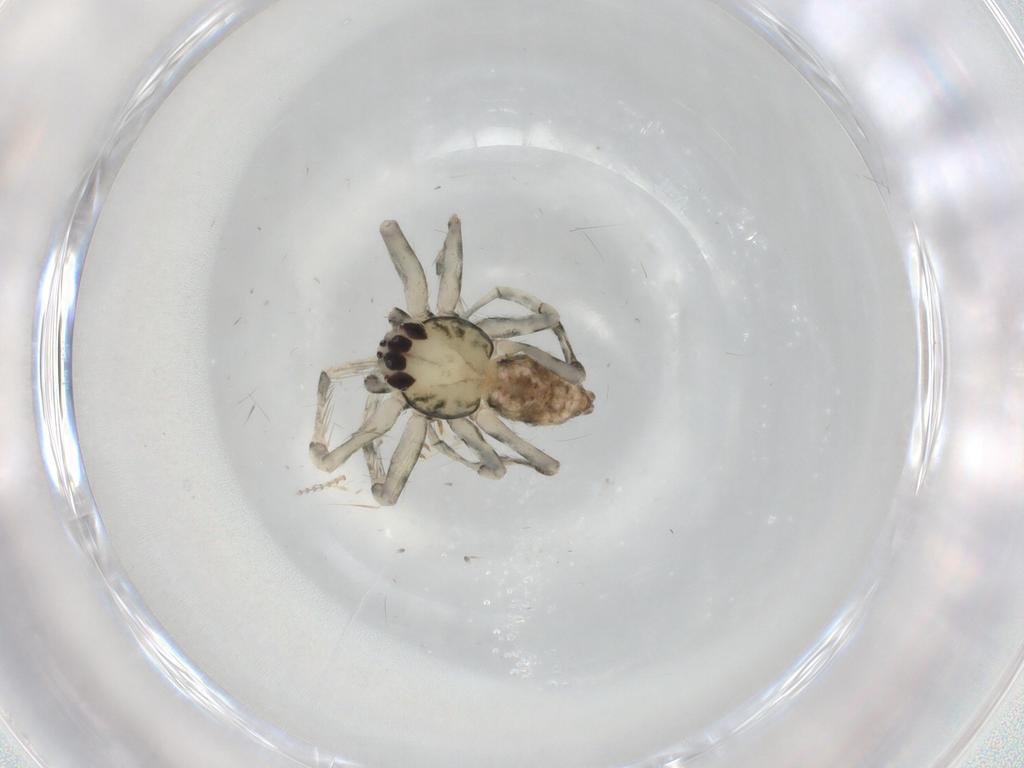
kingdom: Animalia
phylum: Arthropoda
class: Arachnida
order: Araneae
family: Senoculidae
